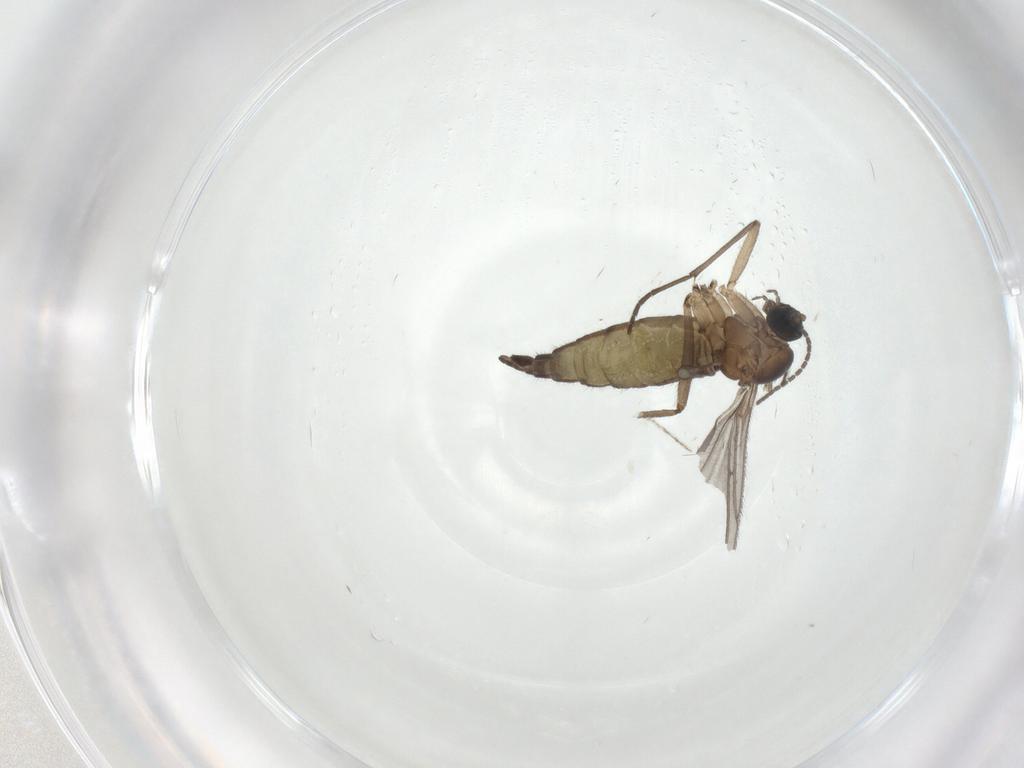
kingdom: Animalia
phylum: Arthropoda
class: Insecta
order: Diptera
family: Sciaridae
